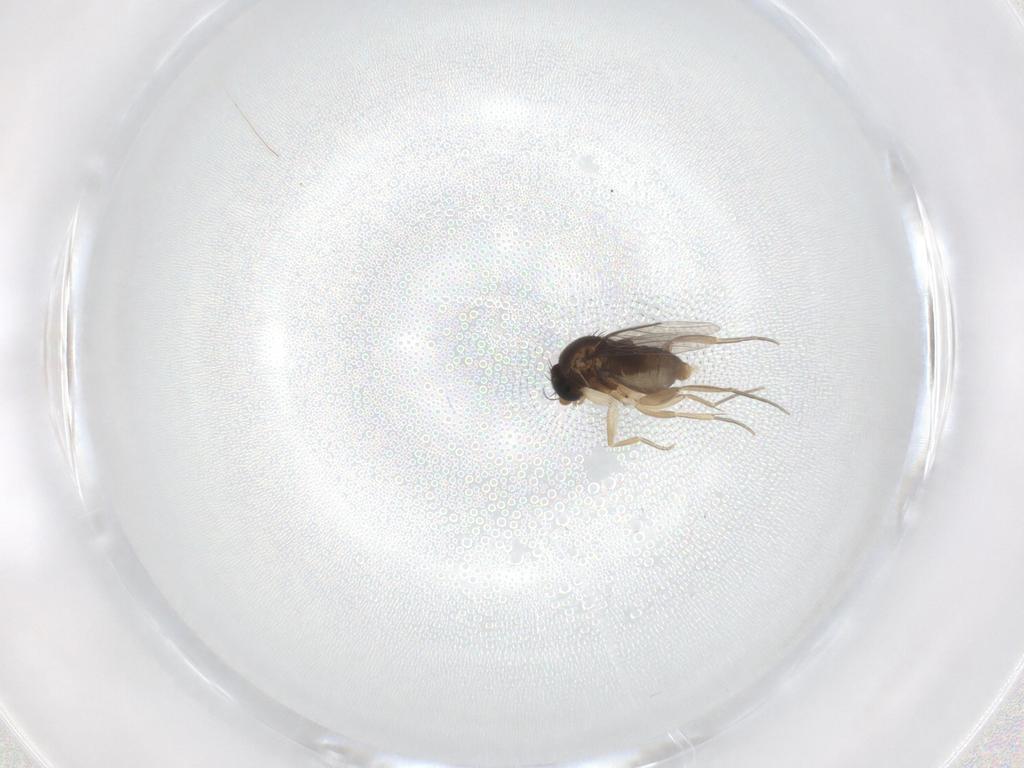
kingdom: Animalia
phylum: Arthropoda
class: Insecta
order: Diptera
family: Phoridae
